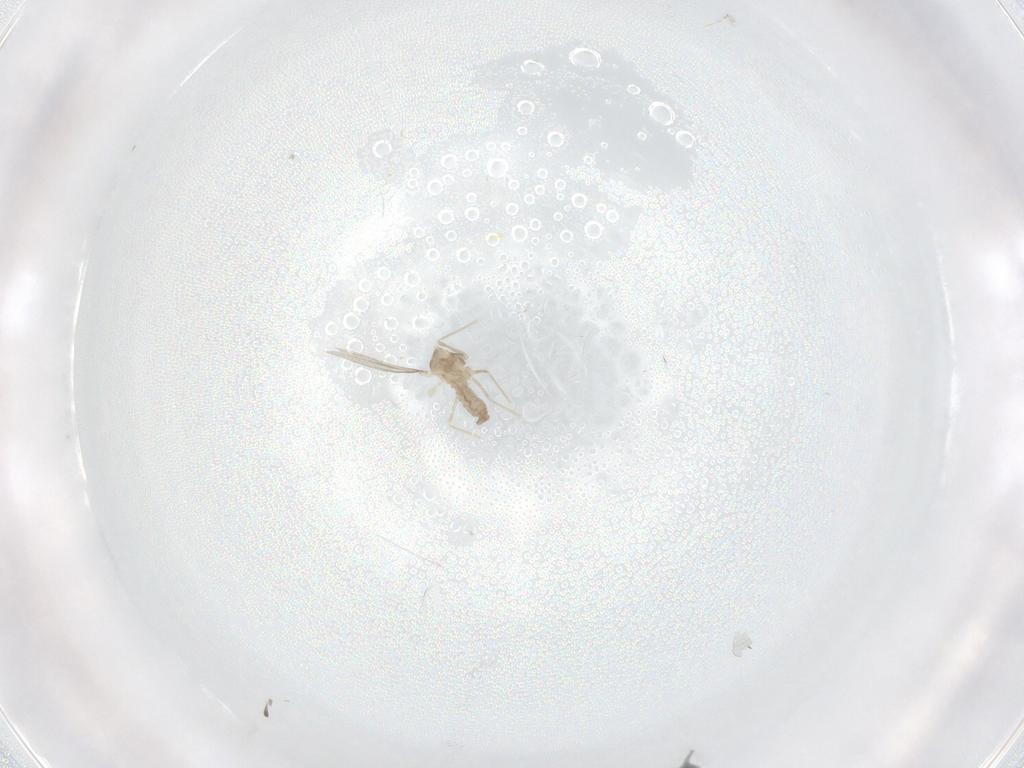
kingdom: Animalia
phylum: Arthropoda
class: Insecta
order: Diptera
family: Cecidomyiidae
